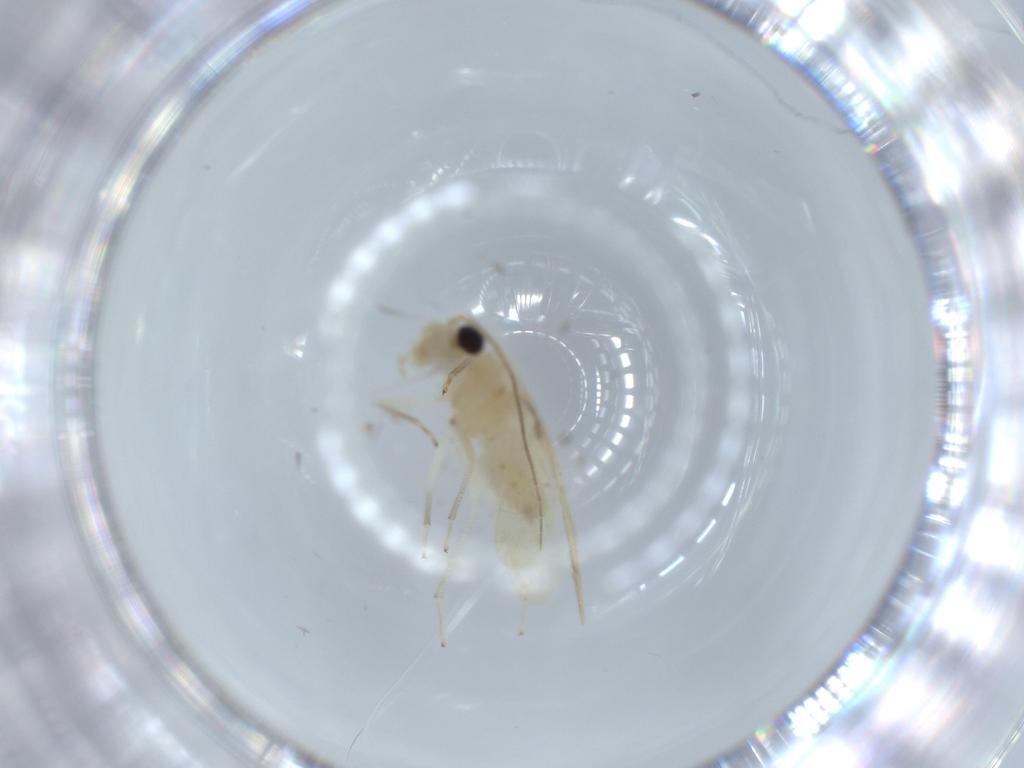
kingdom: Animalia
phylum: Arthropoda
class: Insecta
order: Psocodea
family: Caeciliusidae
